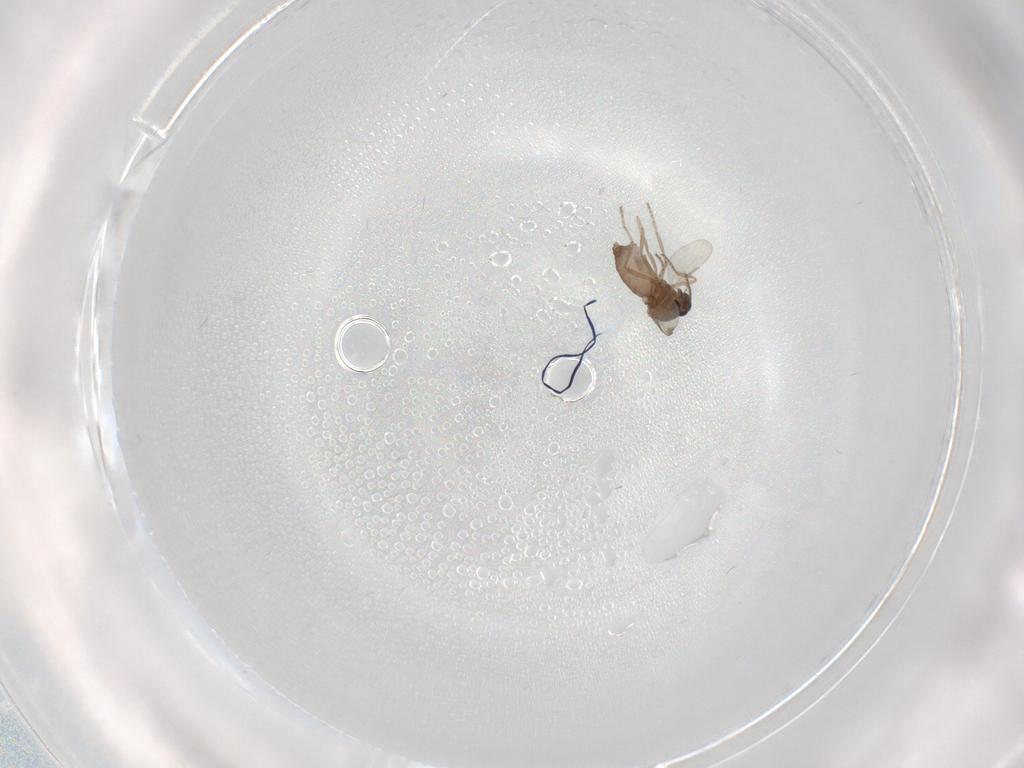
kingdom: Animalia
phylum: Arthropoda
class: Insecta
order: Diptera
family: Ceratopogonidae
